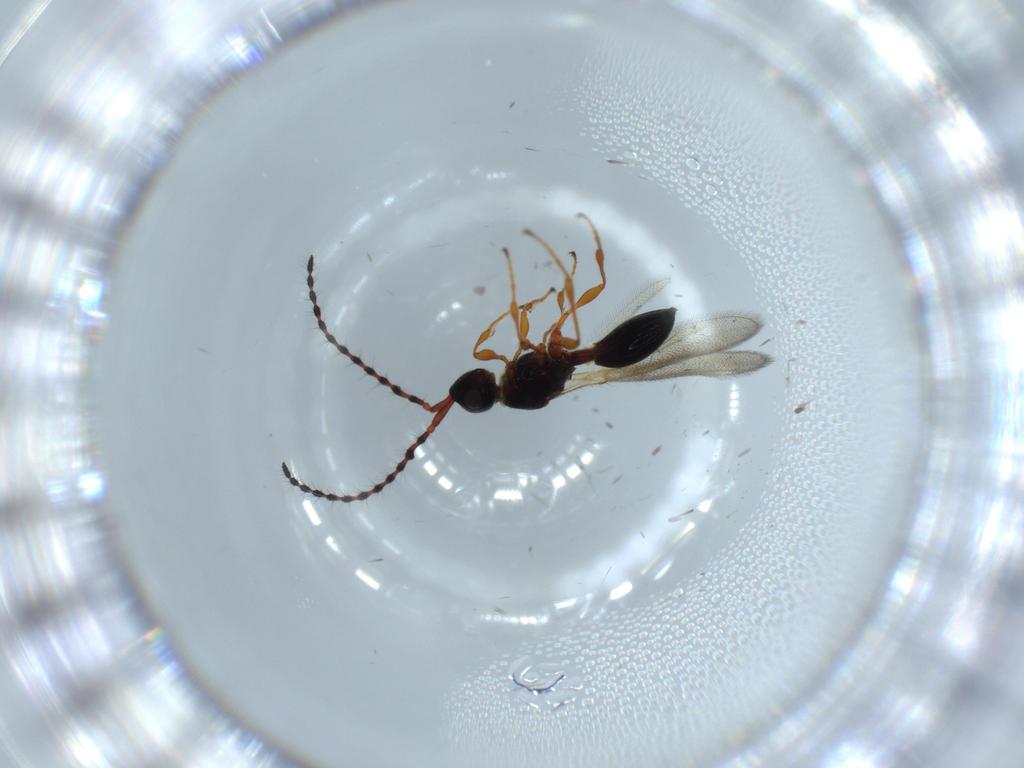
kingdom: Animalia
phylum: Arthropoda
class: Insecta
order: Hymenoptera
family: Diapriidae
